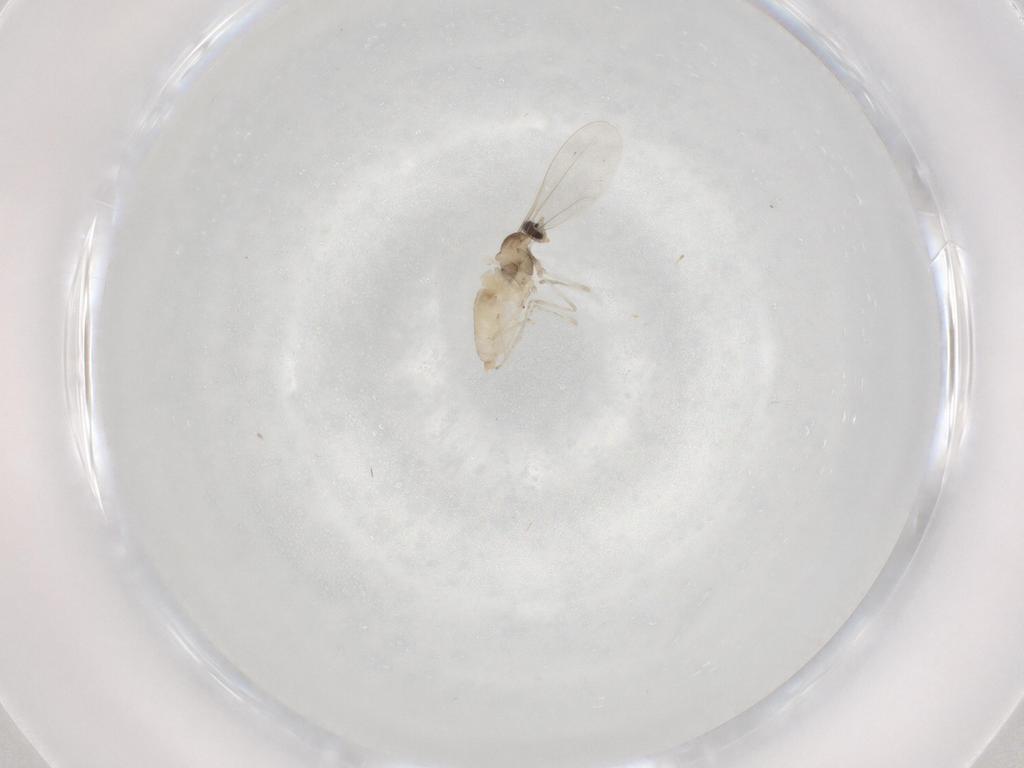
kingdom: Animalia
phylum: Arthropoda
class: Insecta
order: Diptera
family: Cecidomyiidae
